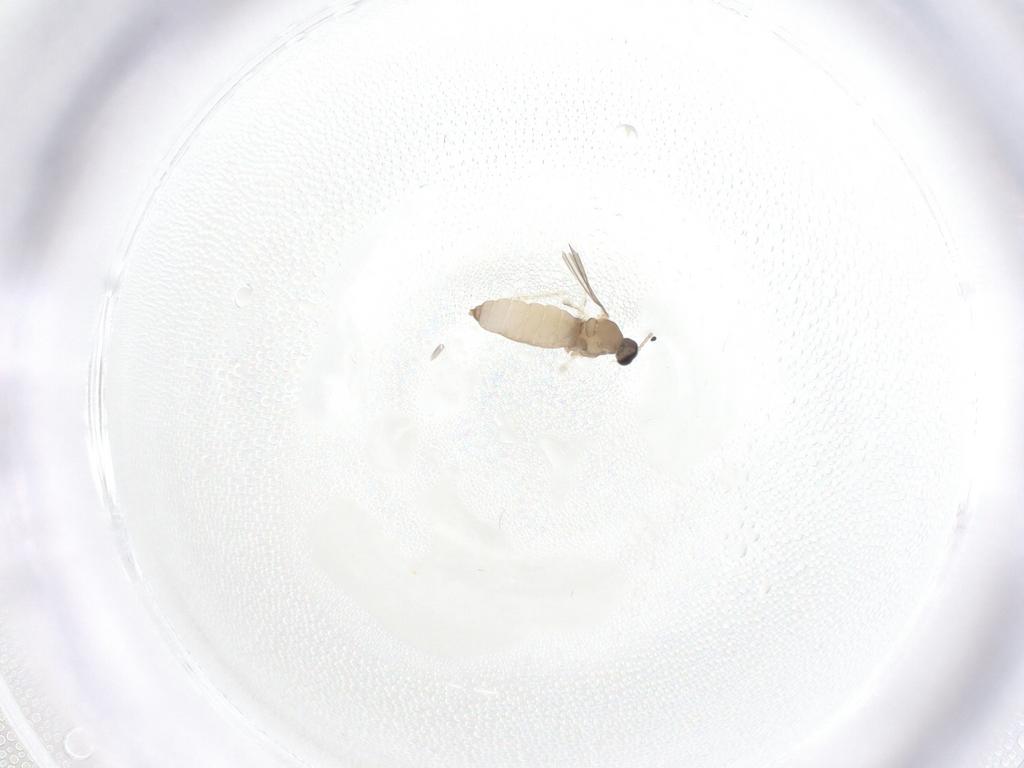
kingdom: Animalia
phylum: Arthropoda
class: Insecta
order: Diptera
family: Cecidomyiidae
